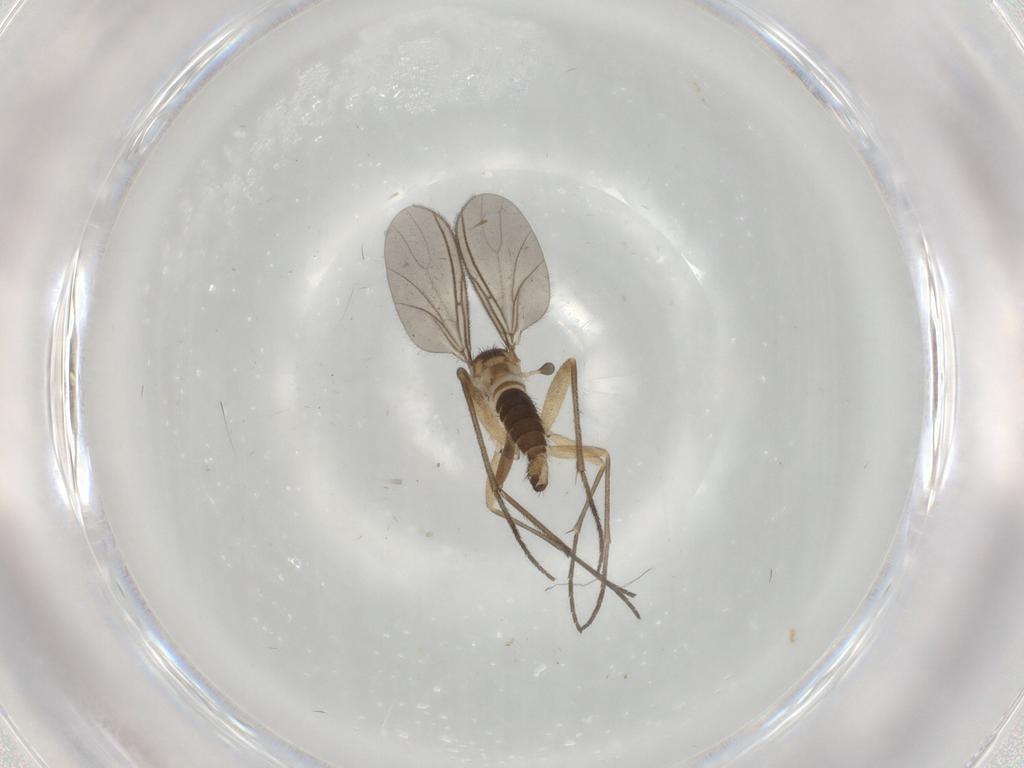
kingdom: Animalia
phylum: Arthropoda
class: Insecta
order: Diptera
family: Sciaridae
